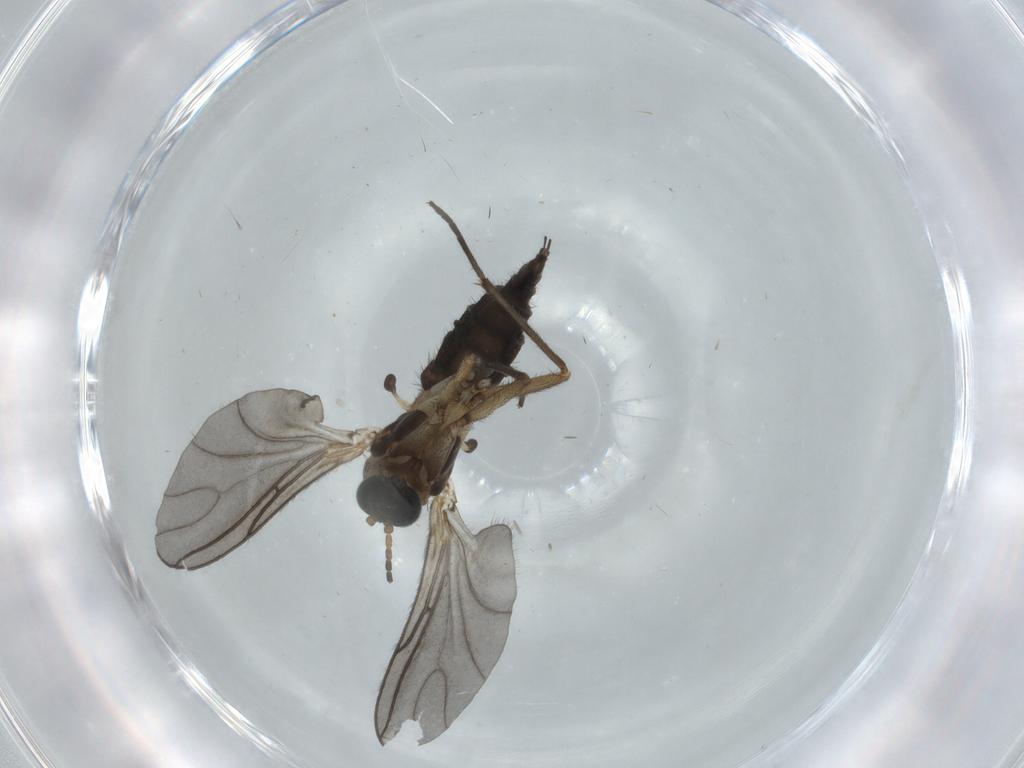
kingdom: Animalia
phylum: Arthropoda
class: Insecta
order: Diptera
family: Sciaridae
